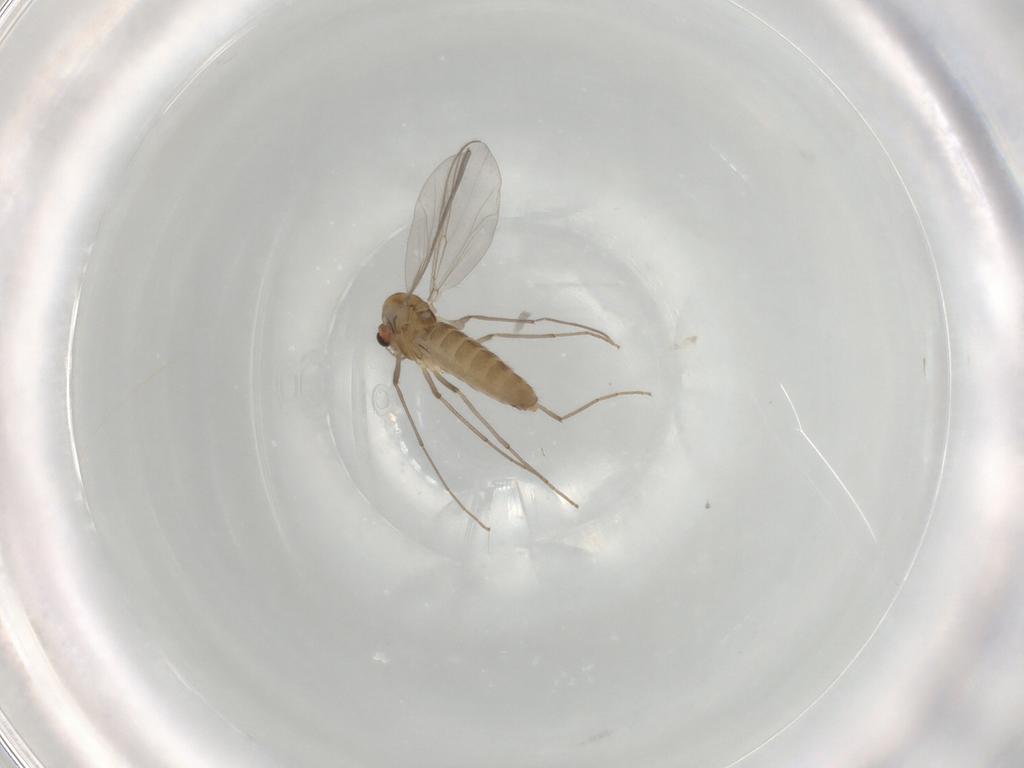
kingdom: Animalia
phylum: Arthropoda
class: Insecta
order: Diptera
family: Chironomidae
